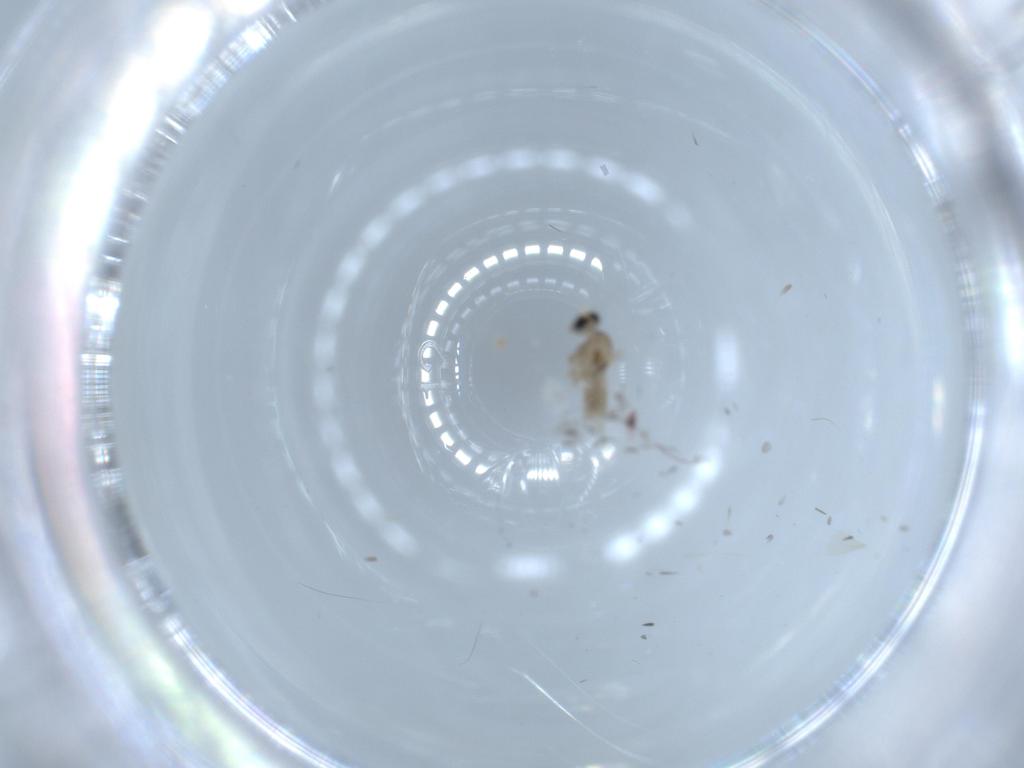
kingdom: Animalia
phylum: Arthropoda
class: Insecta
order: Diptera
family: Cecidomyiidae
